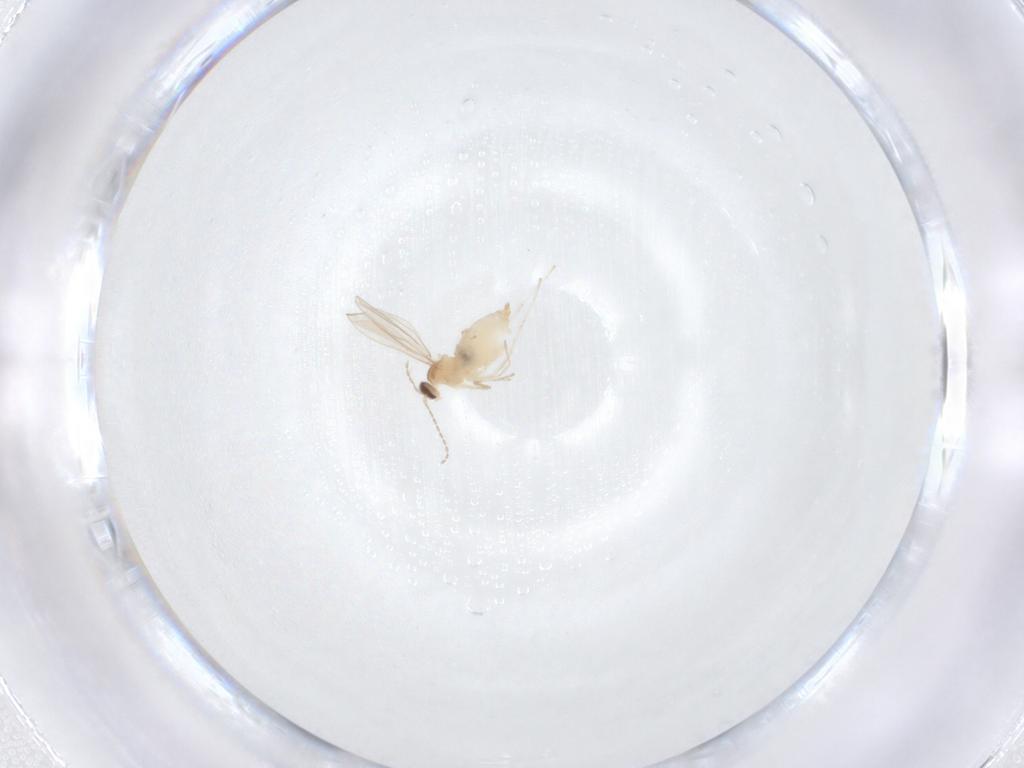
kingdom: Animalia
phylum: Arthropoda
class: Insecta
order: Diptera
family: Cecidomyiidae
